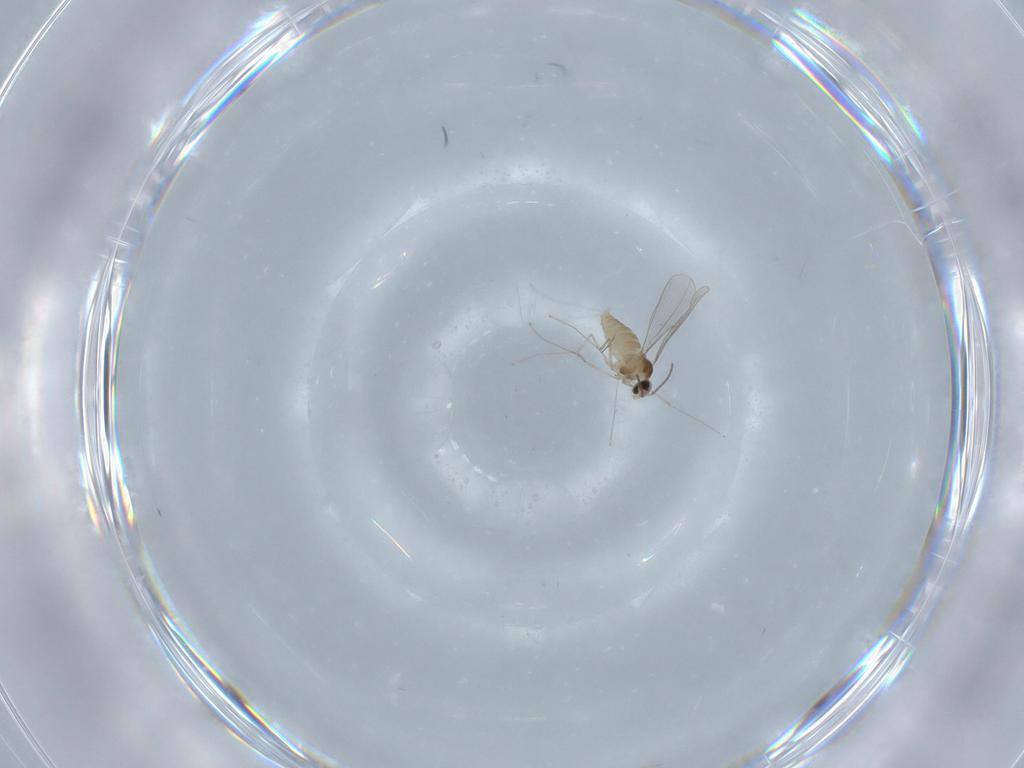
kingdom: Animalia
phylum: Arthropoda
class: Insecta
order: Diptera
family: Cecidomyiidae
